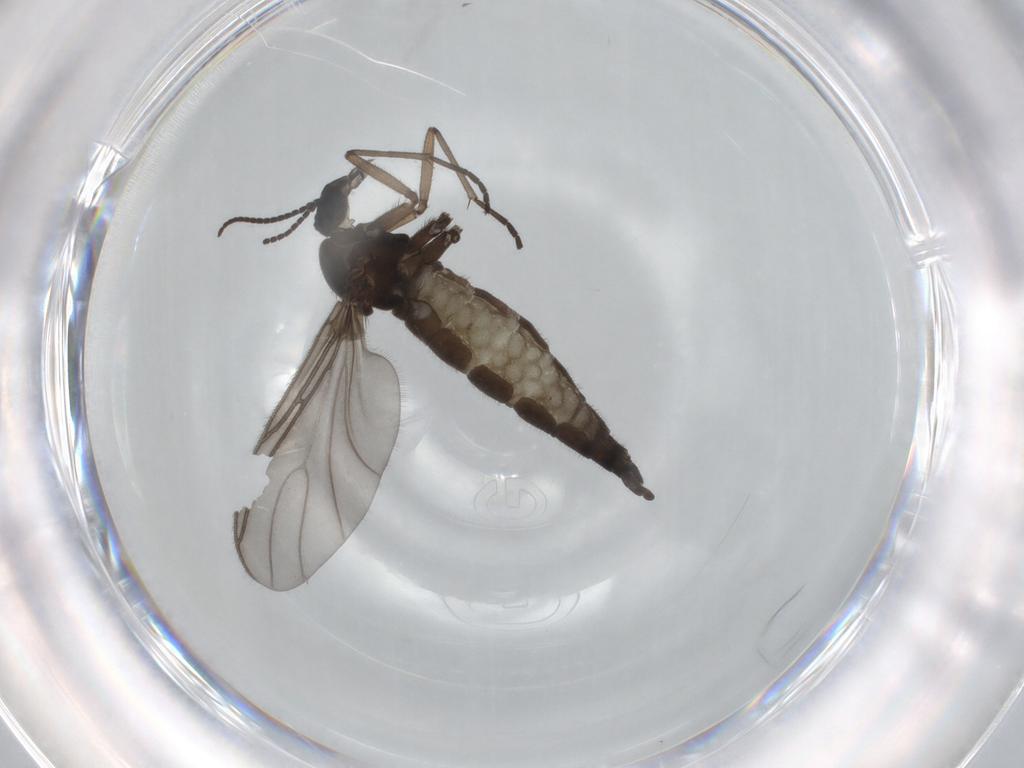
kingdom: Animalia
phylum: Arthropoda
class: Insecta
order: Diptera
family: Sciaridae
